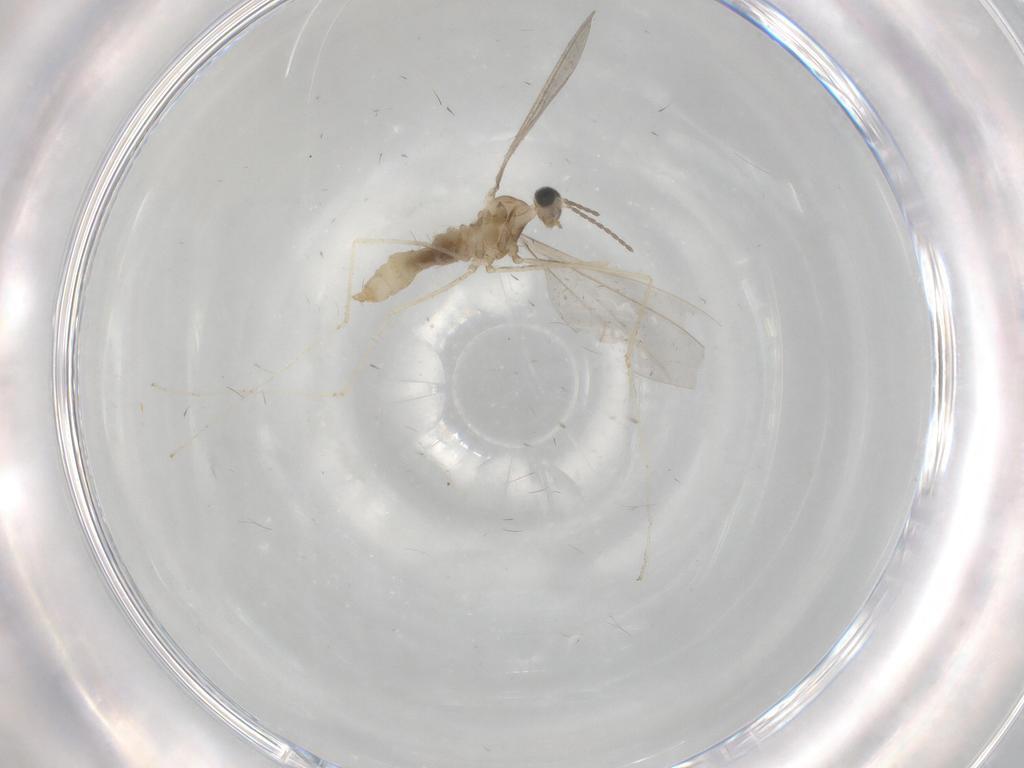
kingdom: Animalia
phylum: Arthropoda
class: Insecta
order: Diptera
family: Cecidomyiidae
